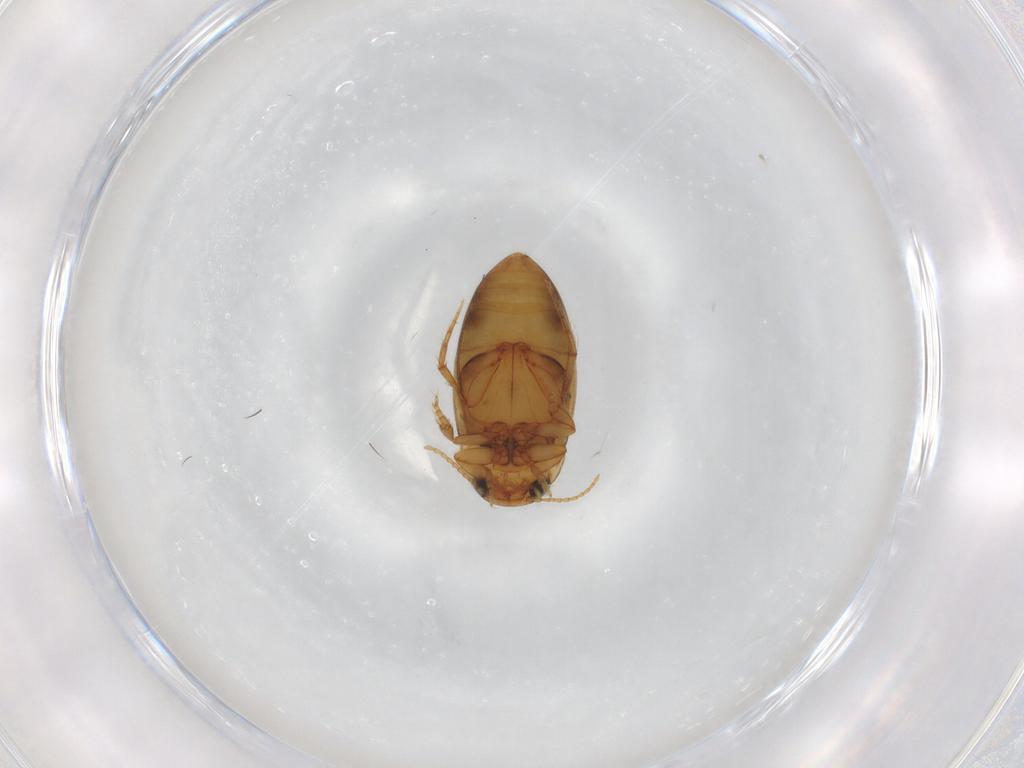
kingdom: Animalia
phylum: Arthropoda
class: Insecta
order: Coleoptera
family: Dytiscidae
